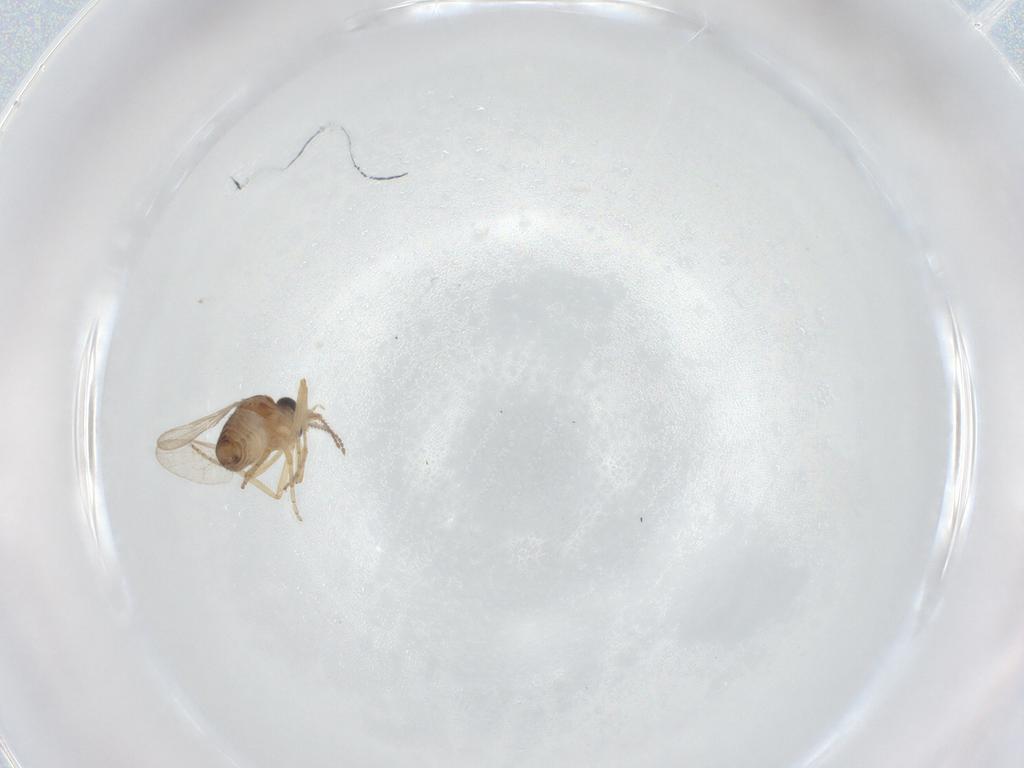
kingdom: Animalia
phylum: Arthropoda
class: Insecta
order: Diptera
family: Ceratopogonidae
